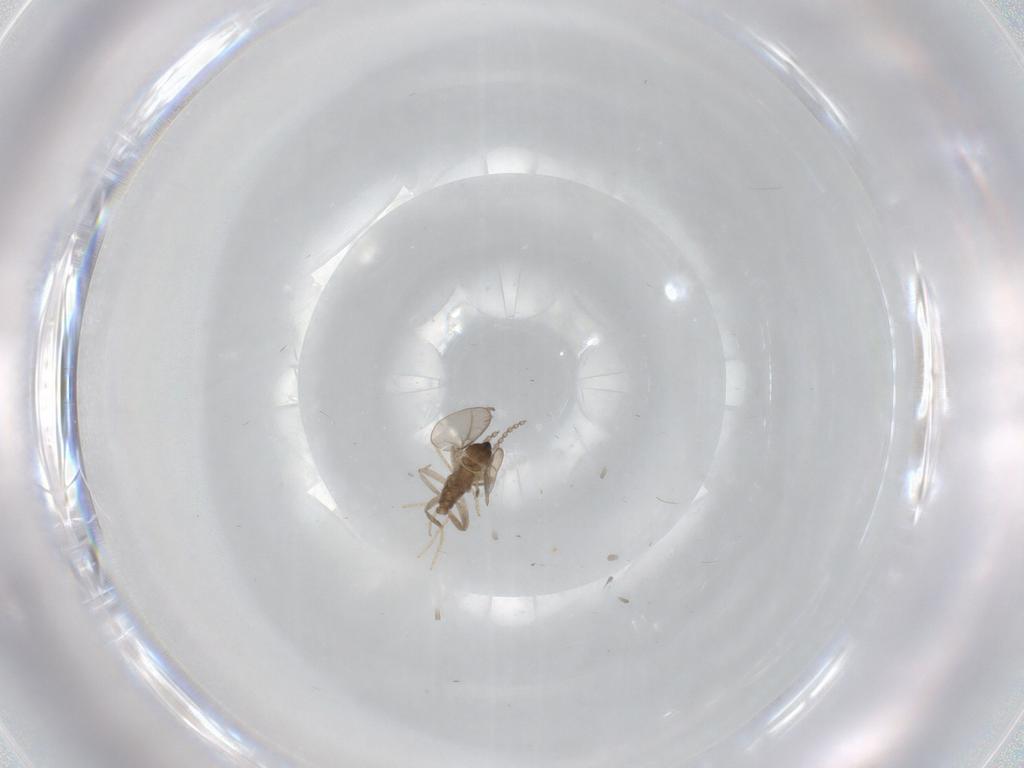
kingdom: Animalia
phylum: Arthropoda
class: Insecta
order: Diptera
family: Cecidomyiidae
